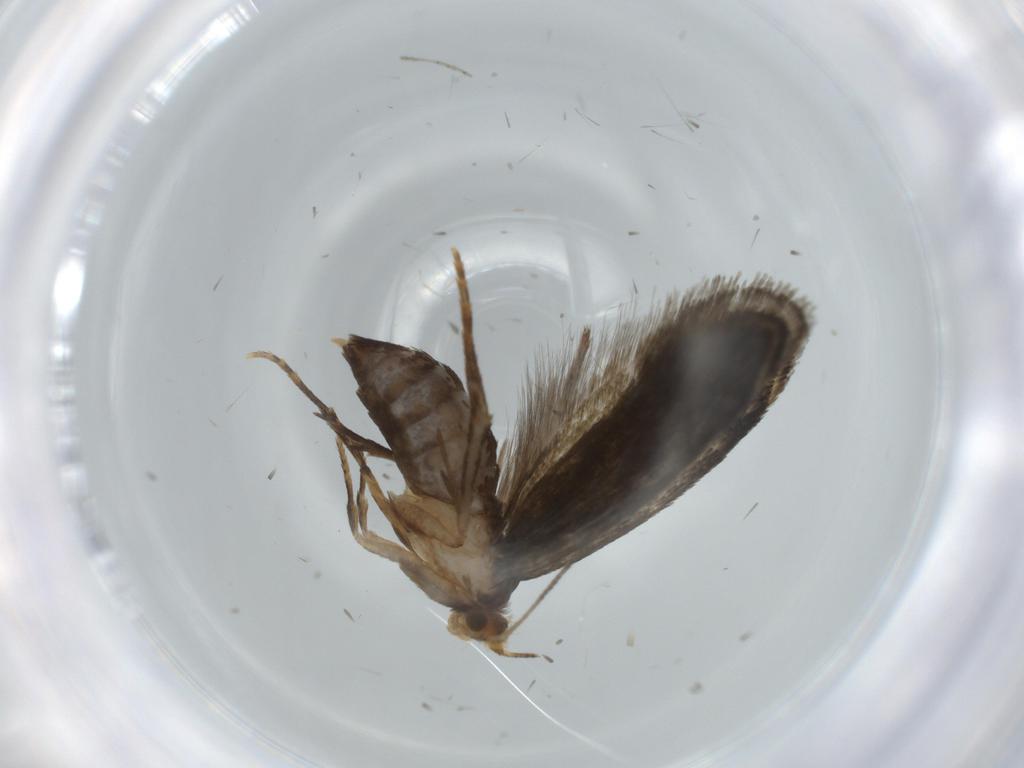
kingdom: Animalia
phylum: Arthropoda
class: Insecta
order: Lepidoptera
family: Tineidae
